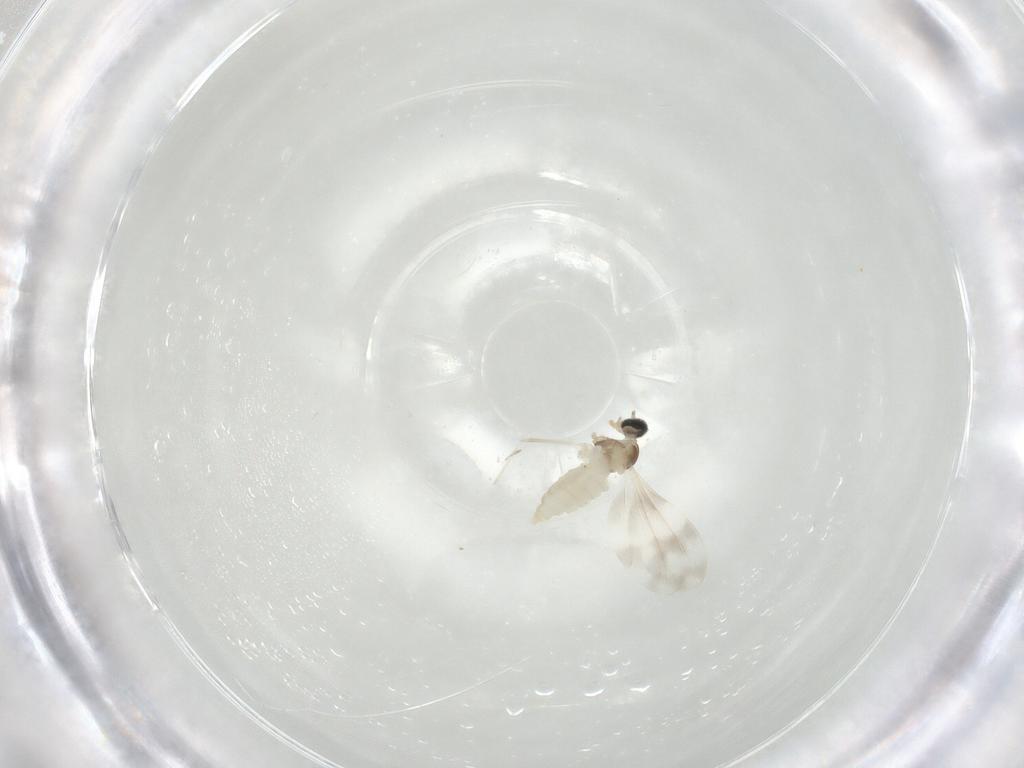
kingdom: Animalia
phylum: Arthropoda
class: Insecta
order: Diptera
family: Cecidomyiidae
